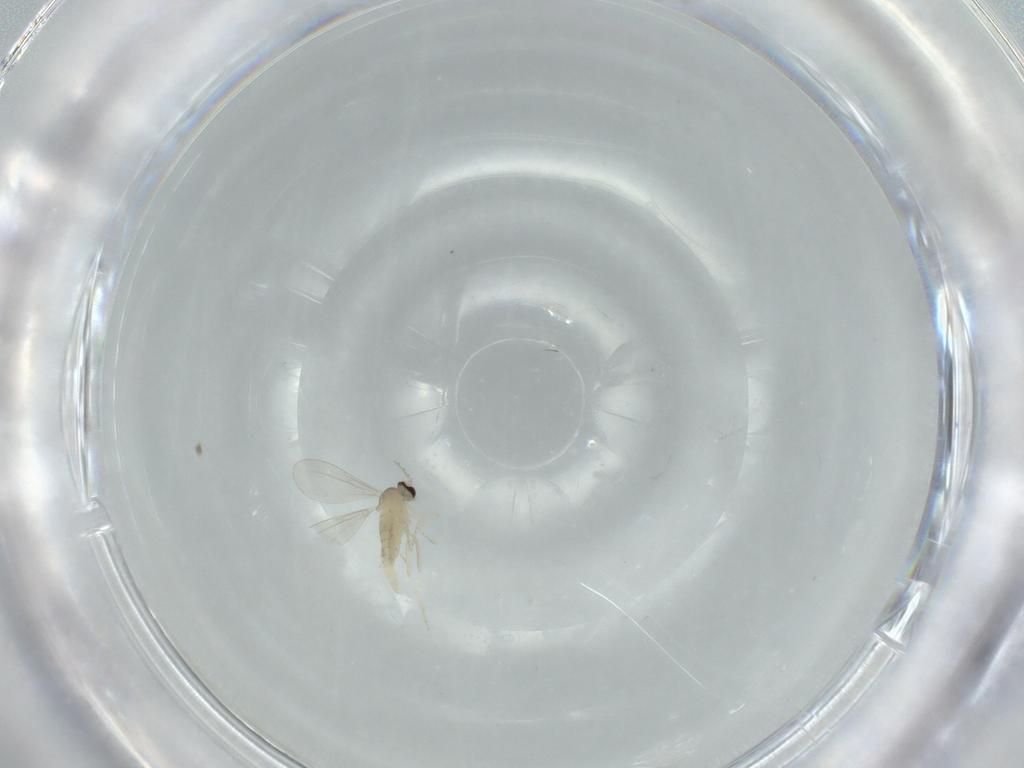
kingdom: Animalia
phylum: Arthropoda
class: Insecta
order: Diptera
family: Cecidomyiidae
